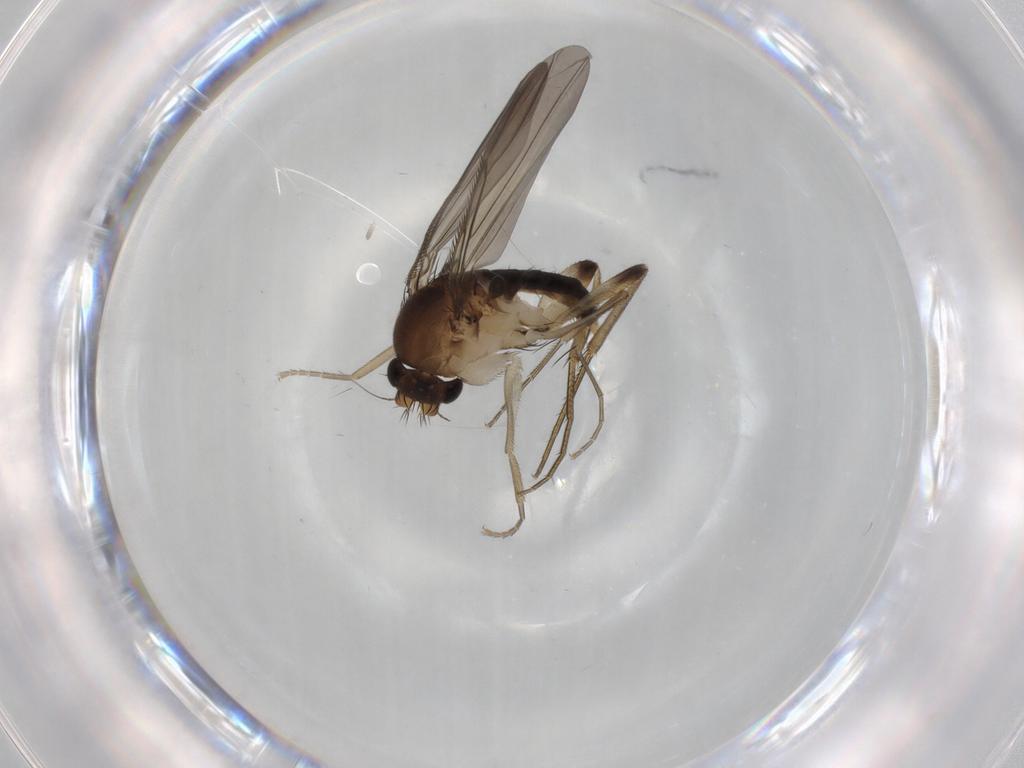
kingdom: Animalia
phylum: Arthropoda
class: Insecta
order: Diptera
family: Phoridae
